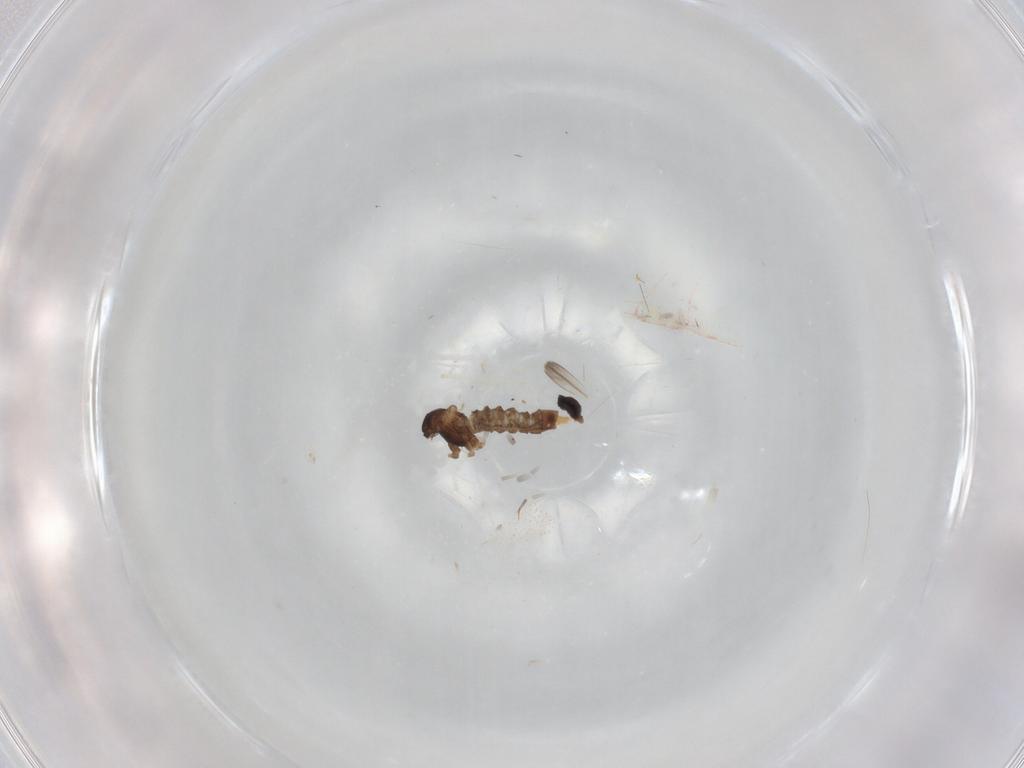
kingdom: Animalia
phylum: Arthropoda
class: Insecta
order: Diptera
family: Cecidomyiidae
